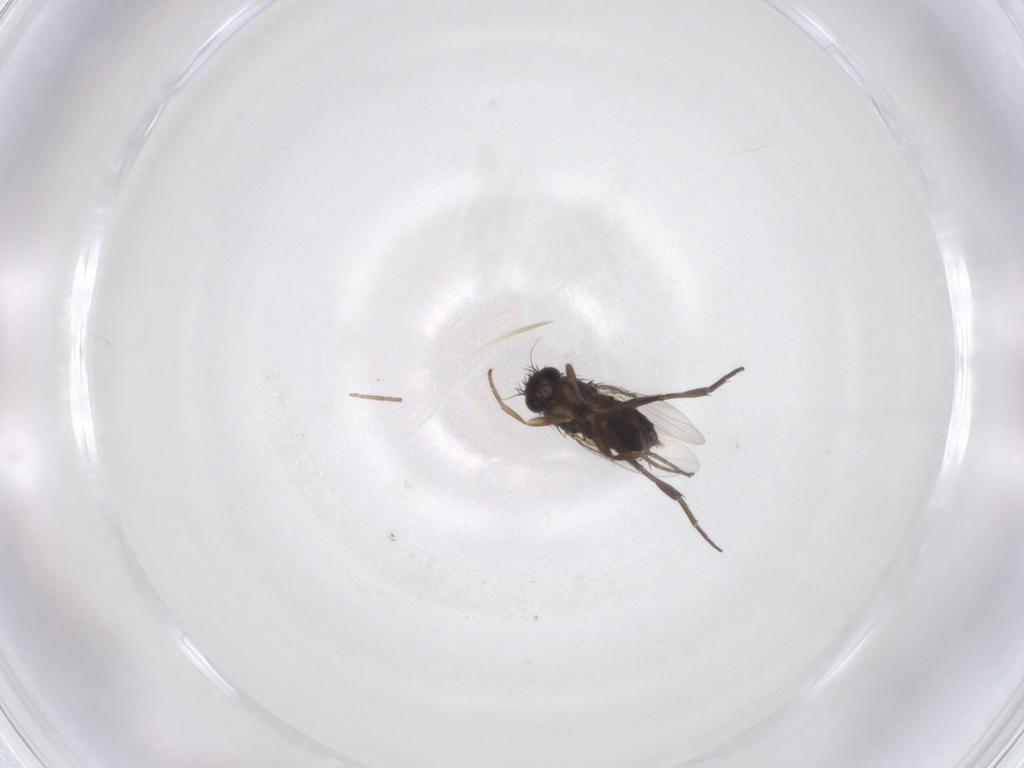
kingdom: Animalia
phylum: Arthropoda
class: Insecta
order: Diptera
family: Phoridae
